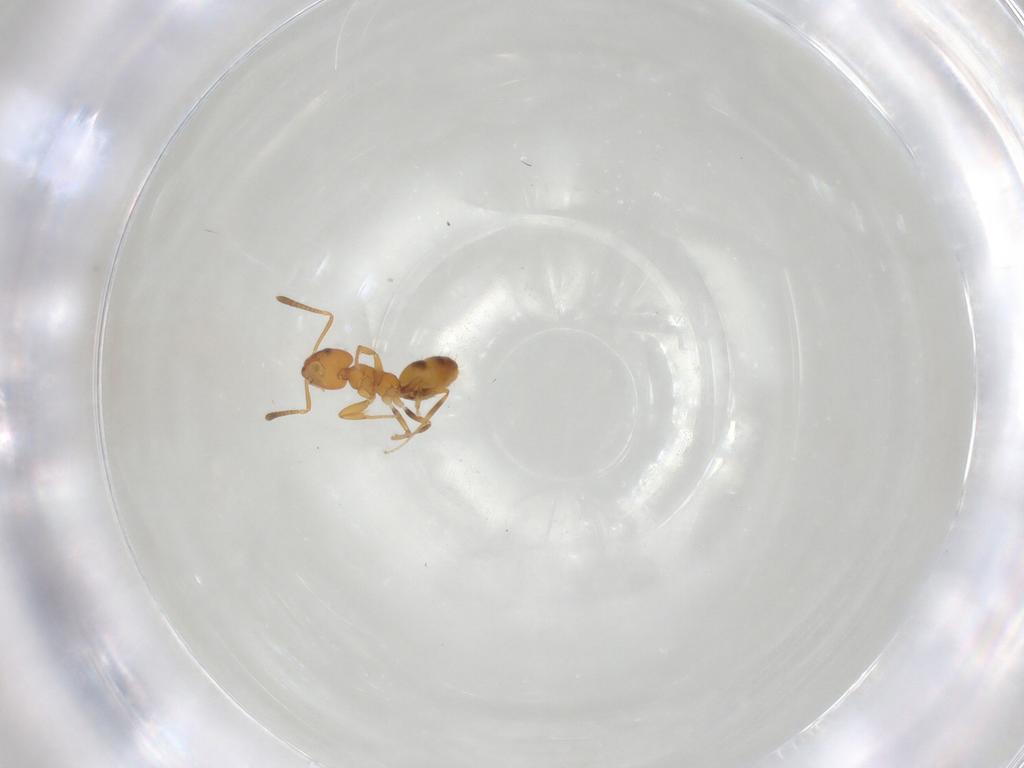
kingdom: Animalia
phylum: Arthropoda
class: Insecta
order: Hymenoptera
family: Formicidae
